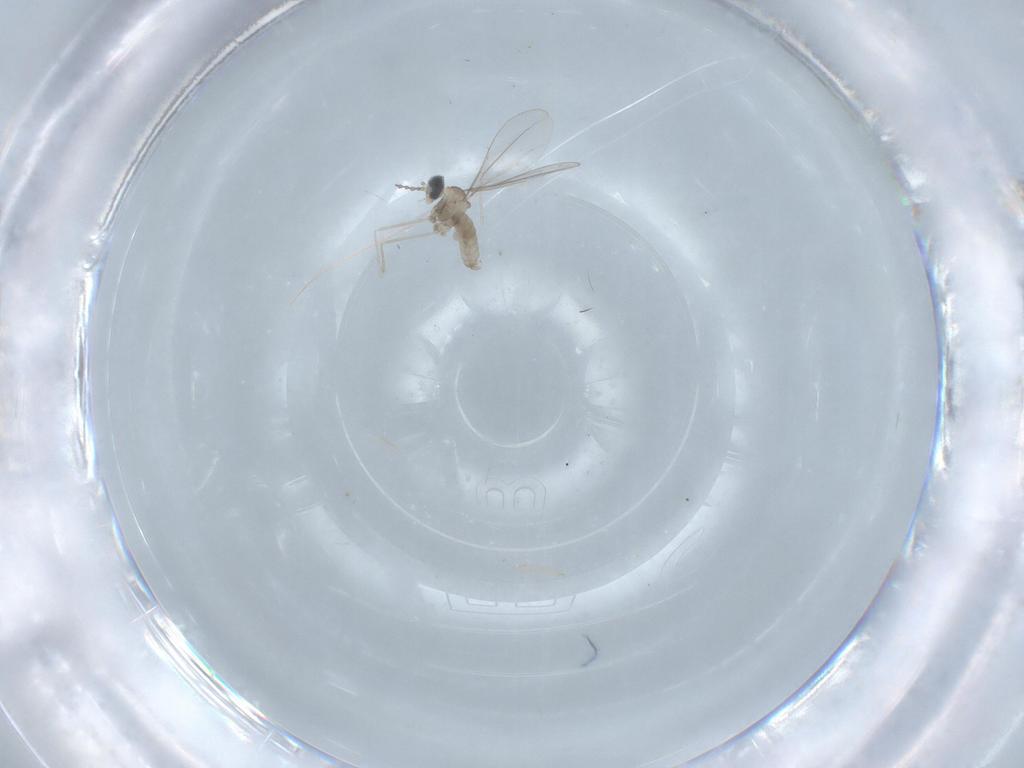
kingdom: Animalia
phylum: Arthropoda
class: Insecta
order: Diptera
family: Cecidomyiidae
